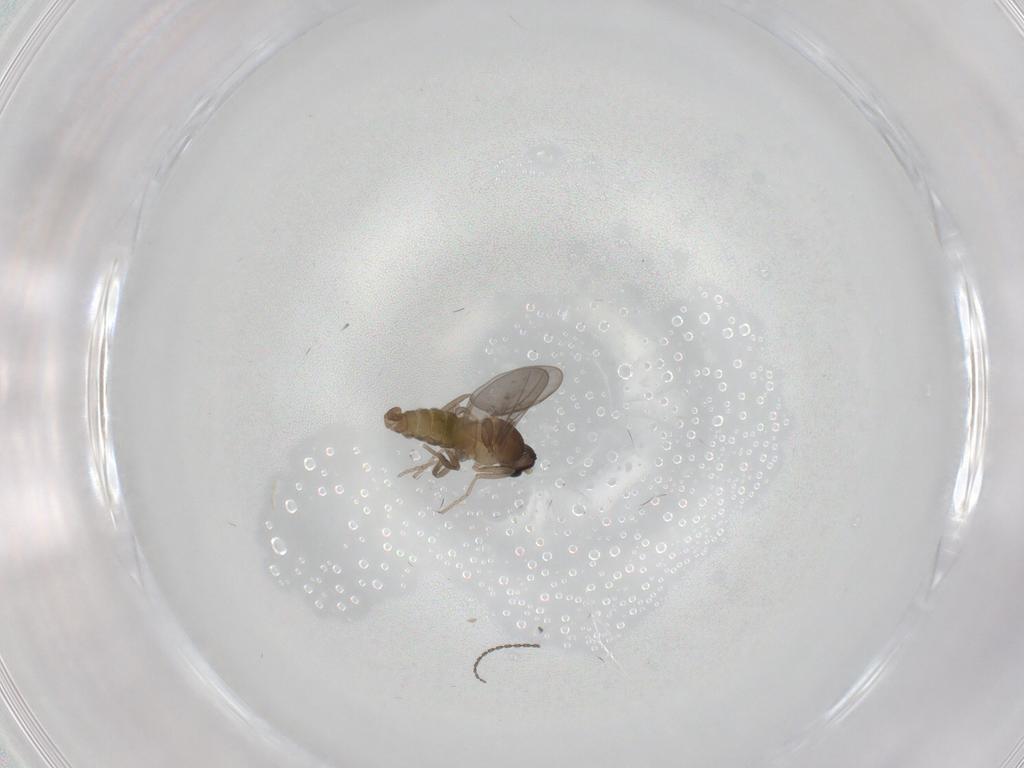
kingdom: Animalia
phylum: Arthropoda
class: Insecta
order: Diptera
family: Cecidomyiidae
